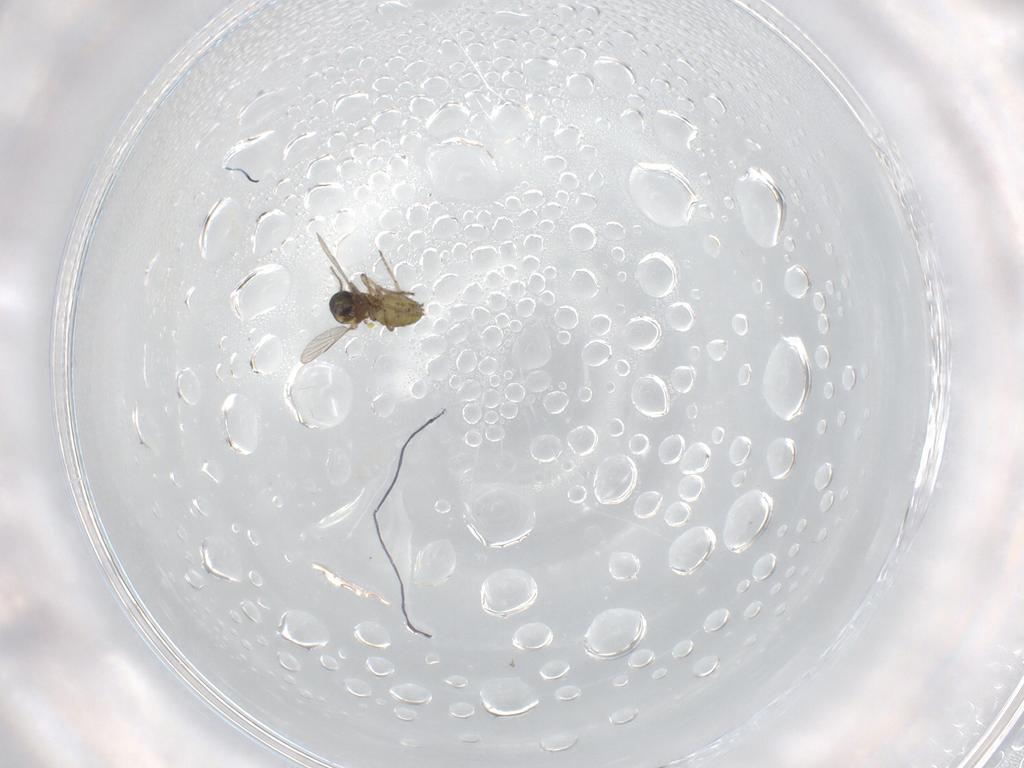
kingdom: Animalia
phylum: Arthropoda
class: Insecta
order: Diptera
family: Ceratopogonidae
